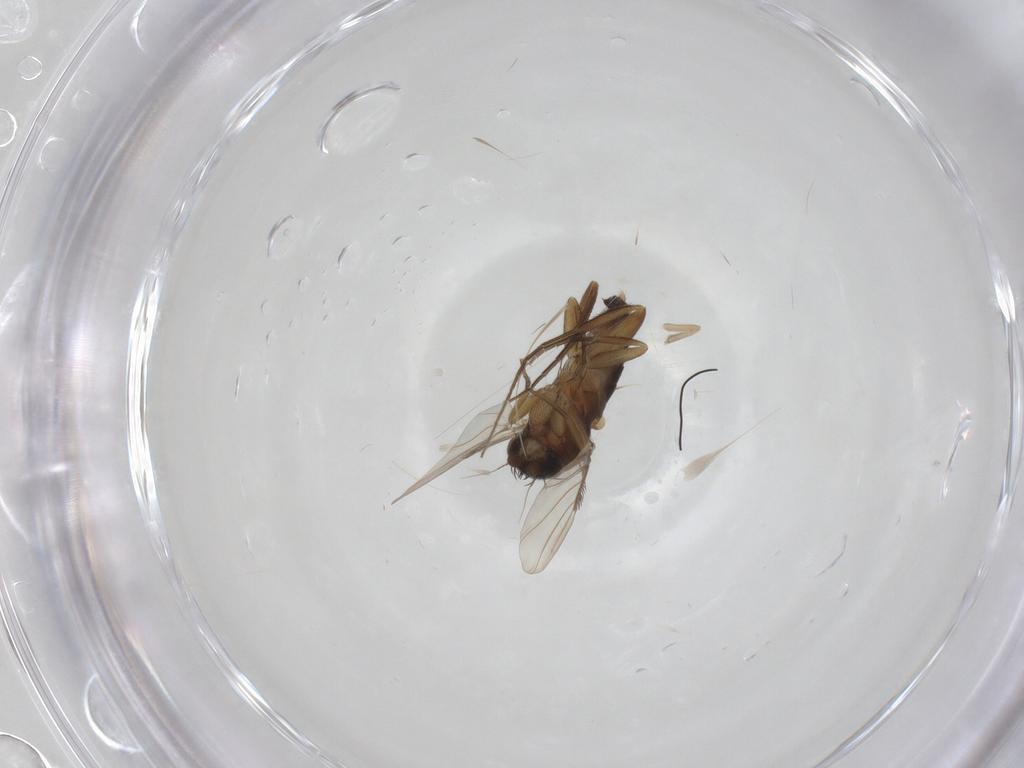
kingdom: Animalia
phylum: Arthropoda
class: Insecta
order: Diptera
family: Psychodidae
